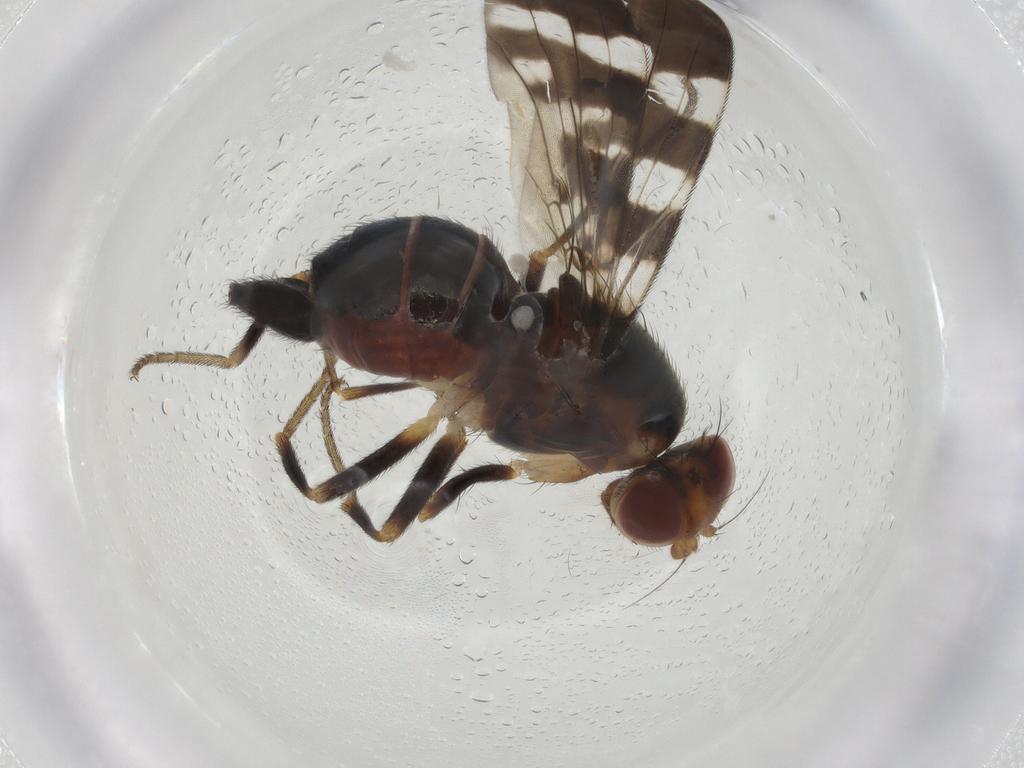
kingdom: Animalia
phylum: Arthropoda
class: Insecta
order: Diptera
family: Tephritidae
